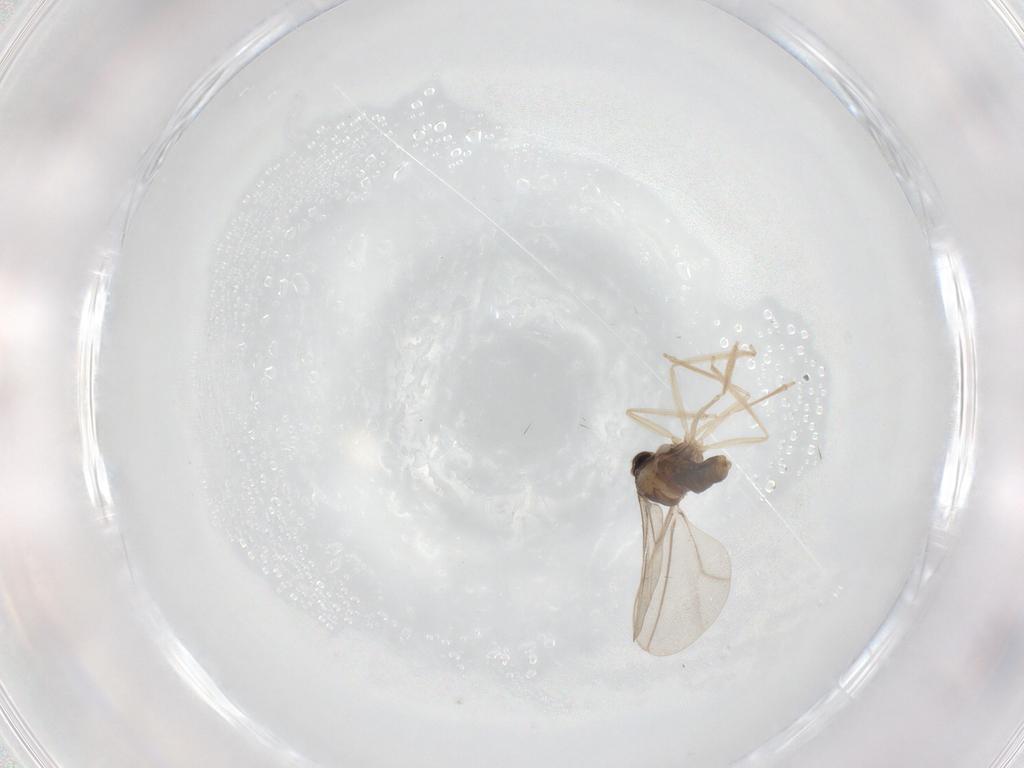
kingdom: Animalia
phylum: Arthropoda
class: Insecta
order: Diptera
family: Cecidomyiidae
